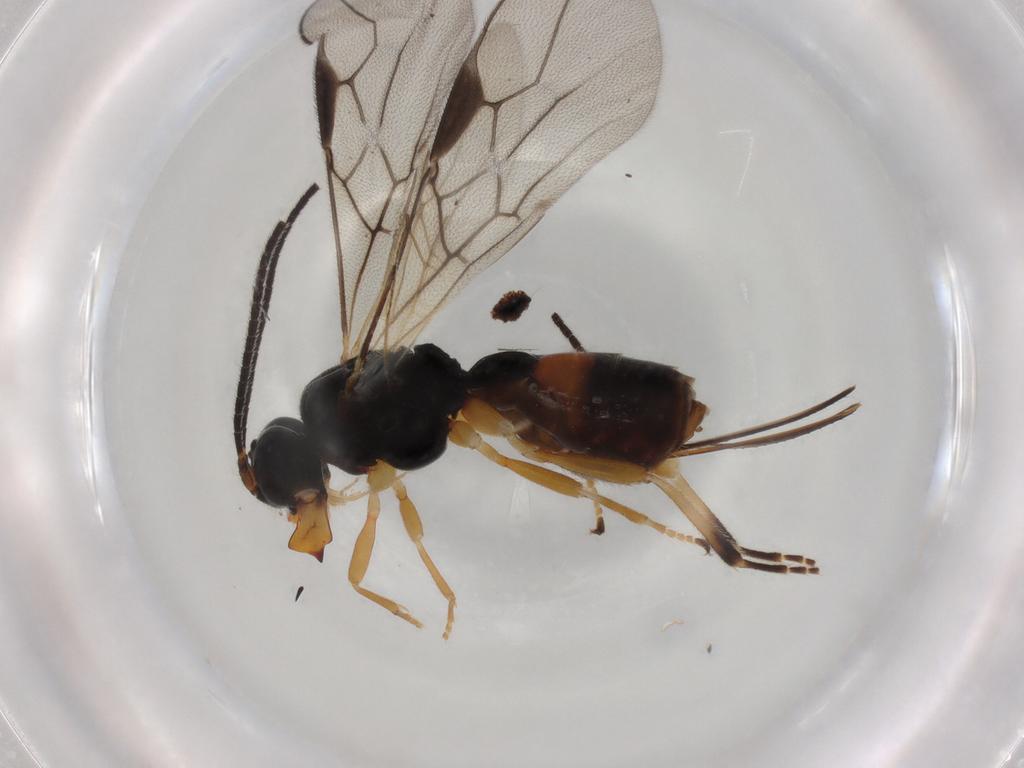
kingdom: Animalia
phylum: Arthropoda
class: Insecta
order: Hymenoptera
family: Braconidae
